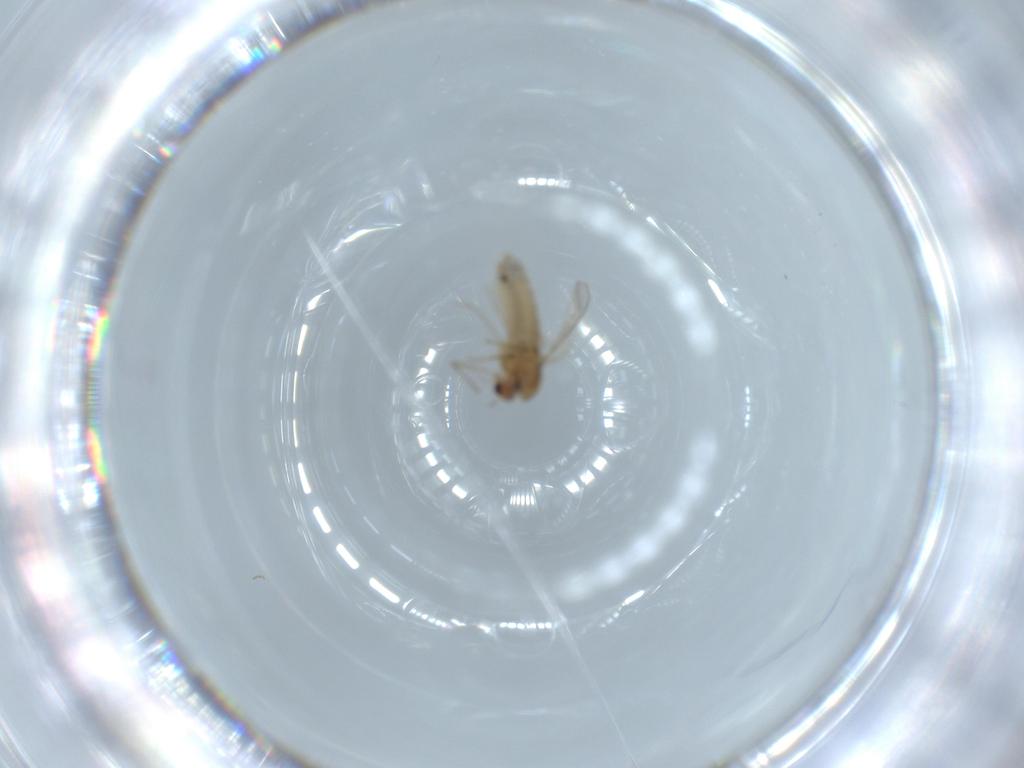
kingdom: Animalia
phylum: Arthropoda
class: Insecta
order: Diptera
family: Chironomidae
